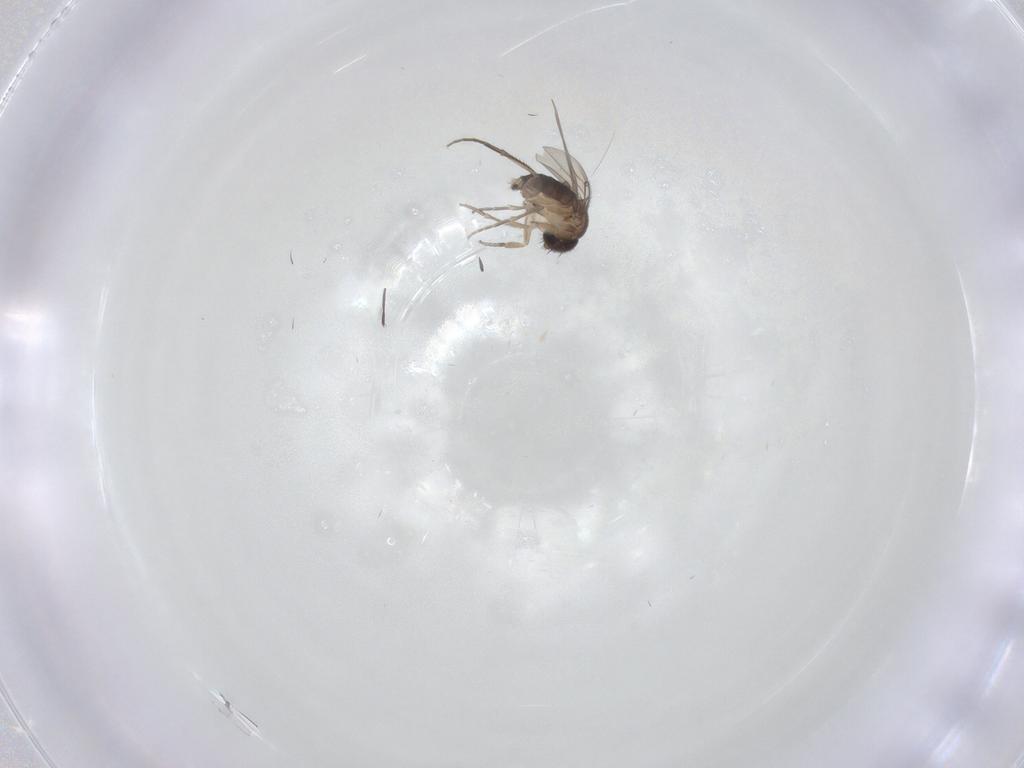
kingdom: Animalia
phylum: Arthropoda
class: Insecta
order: Diptera
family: Phoridae
